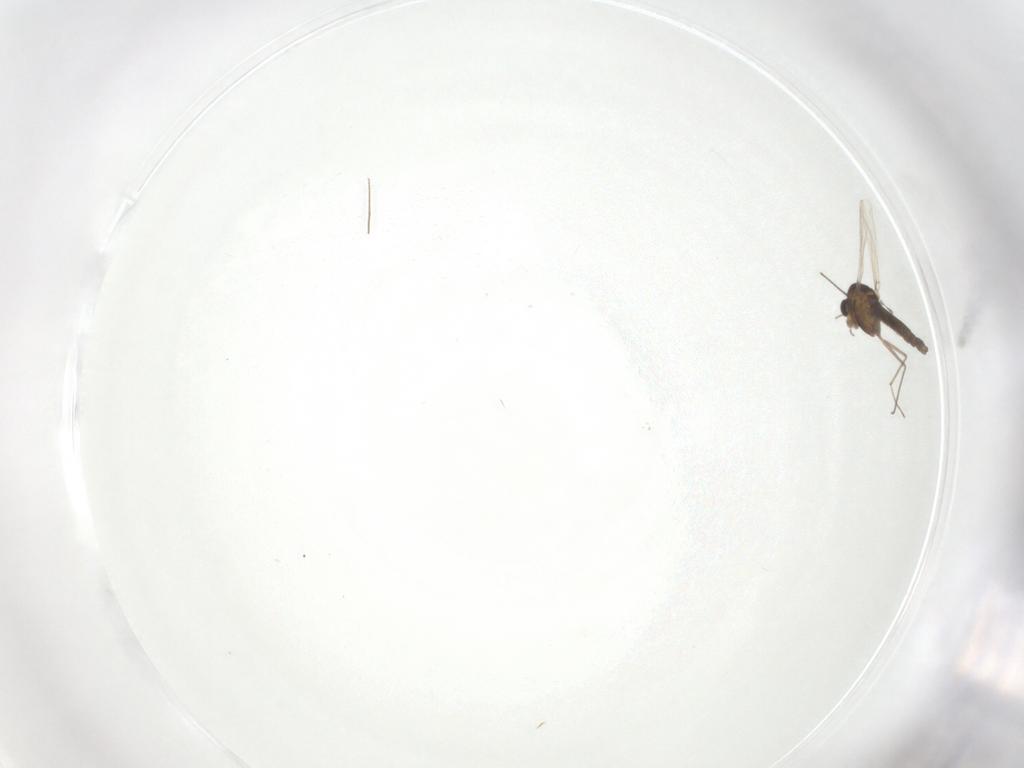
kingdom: Animalia
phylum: Arthropoda
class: Insecta
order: Diptera
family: Chironomidae
